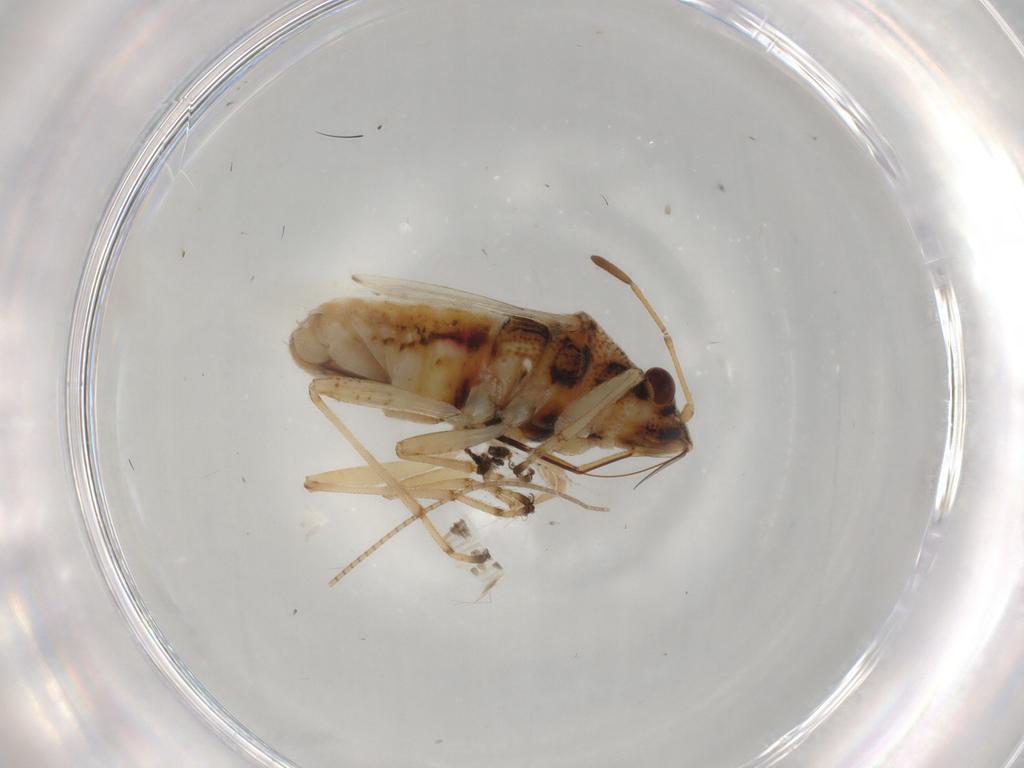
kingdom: Animalia
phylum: Arthropoda
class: Insecta
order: Hemiptera
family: Lygaeidae
